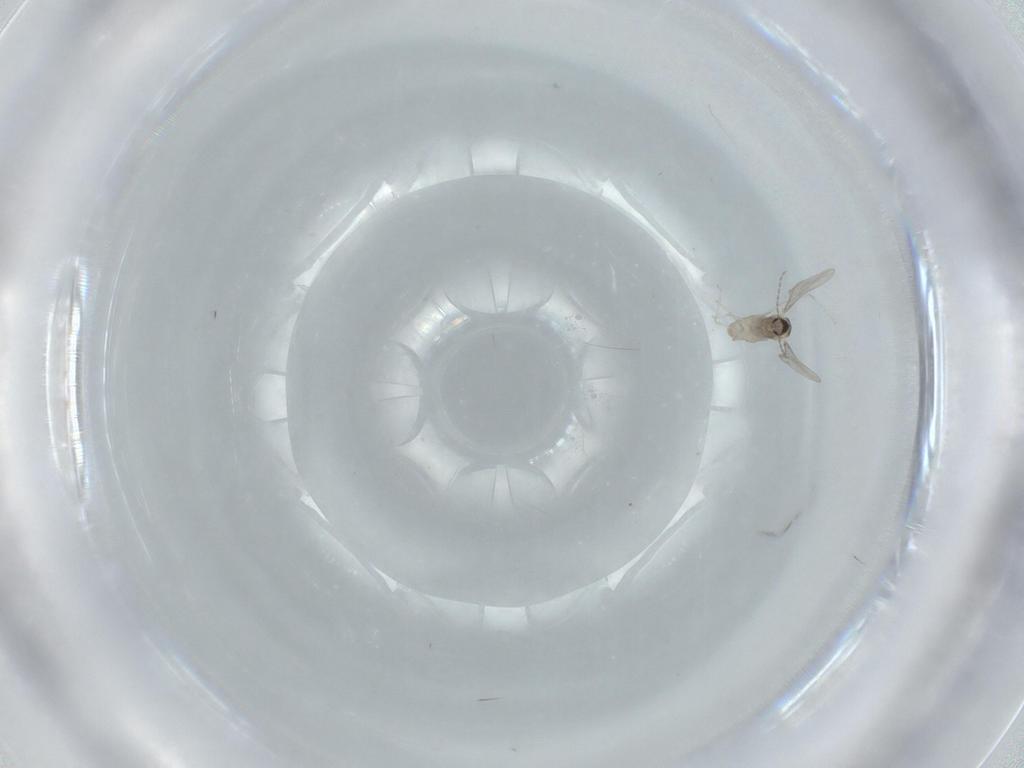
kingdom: Animalia
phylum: Arthropoda
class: Insecta
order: Diptera
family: Cecidomyiidae
